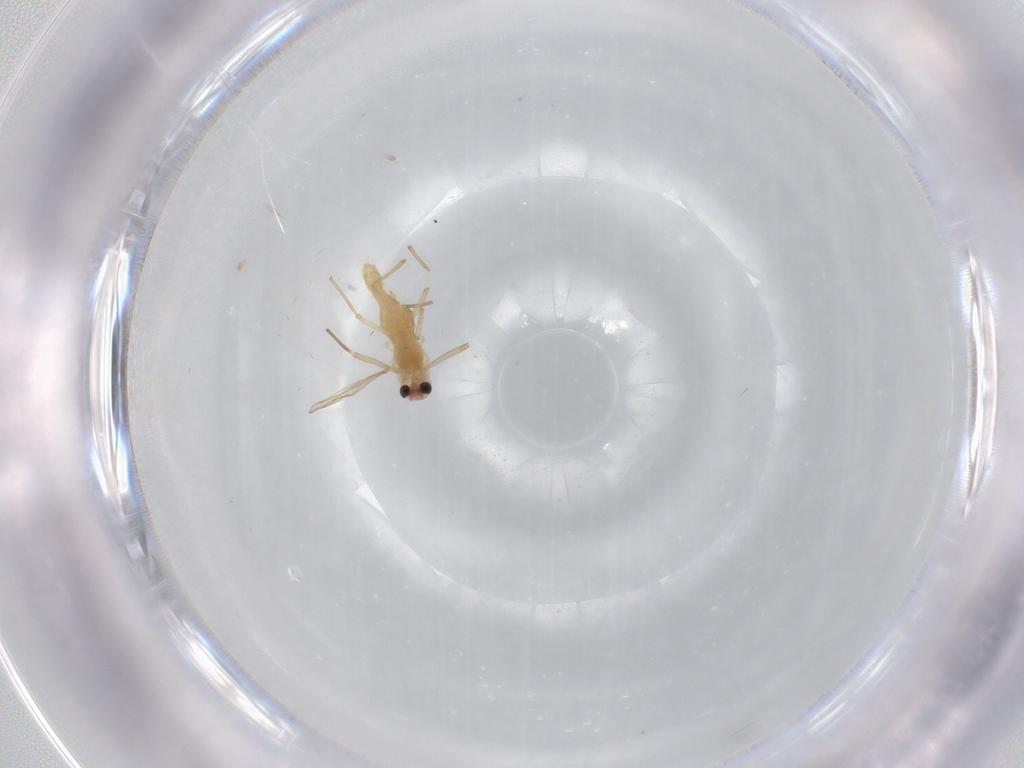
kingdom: Animalia
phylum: Arthropoda
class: Insecta
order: Diptera
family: Chironomidae
